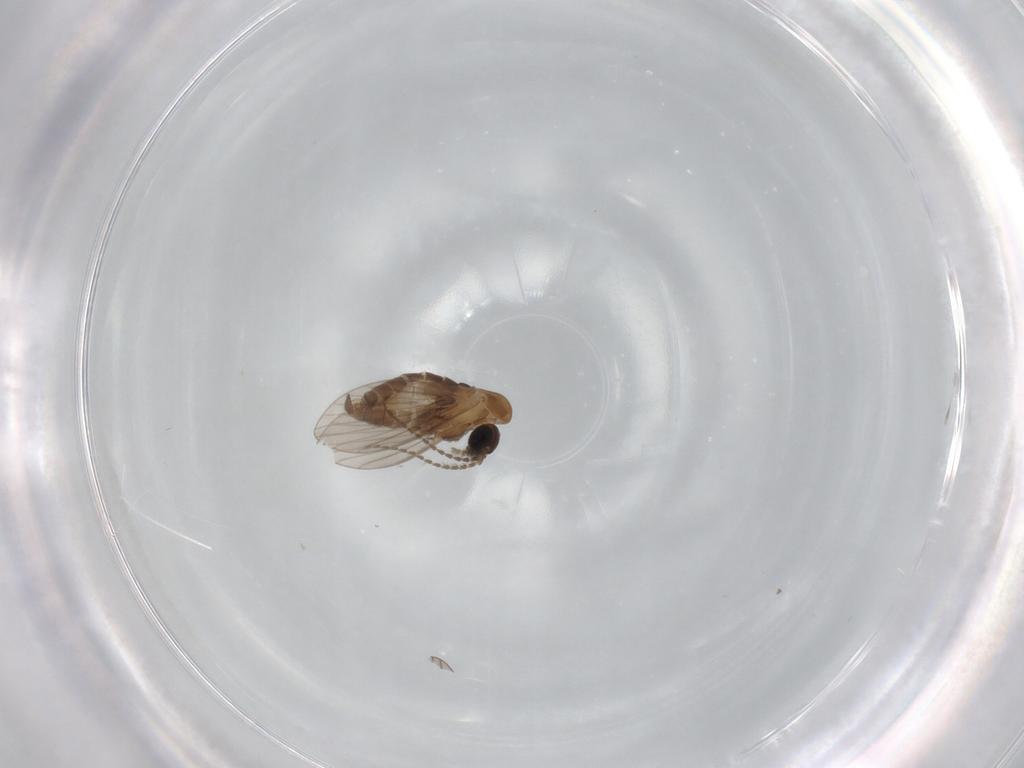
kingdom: Animalia
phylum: Arthropoda
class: Insecta
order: Diptera
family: Psychodidae
